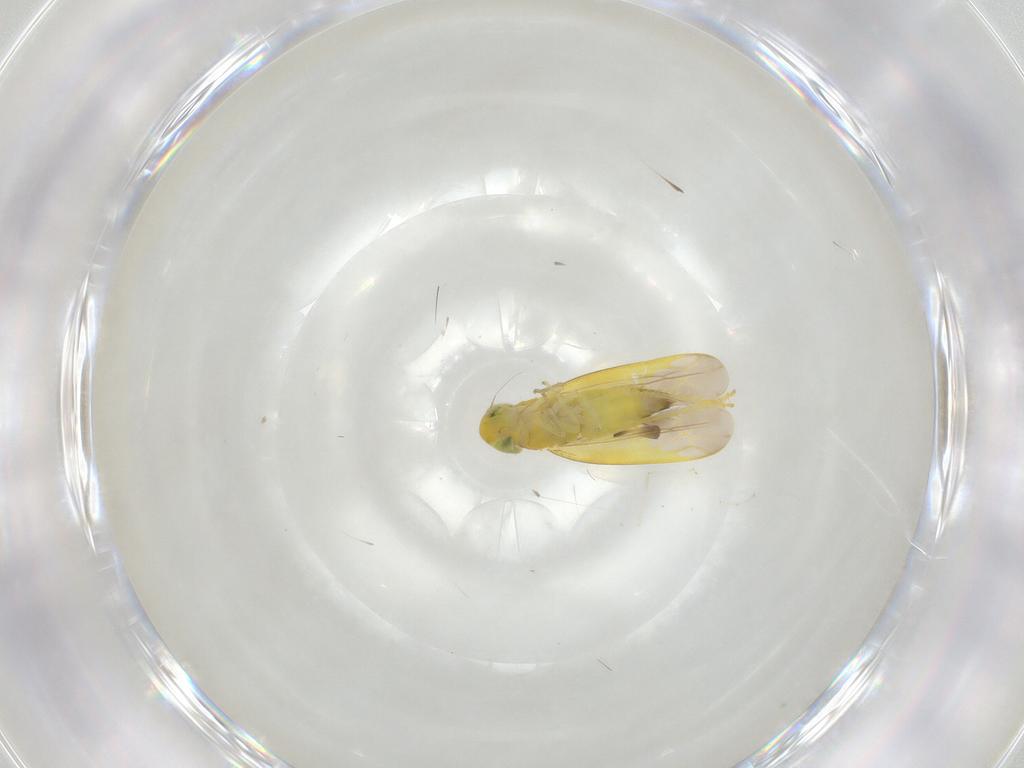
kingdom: Animalia
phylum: Arthropoda
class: Insecta
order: Hemiptera
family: Cicadellidae
